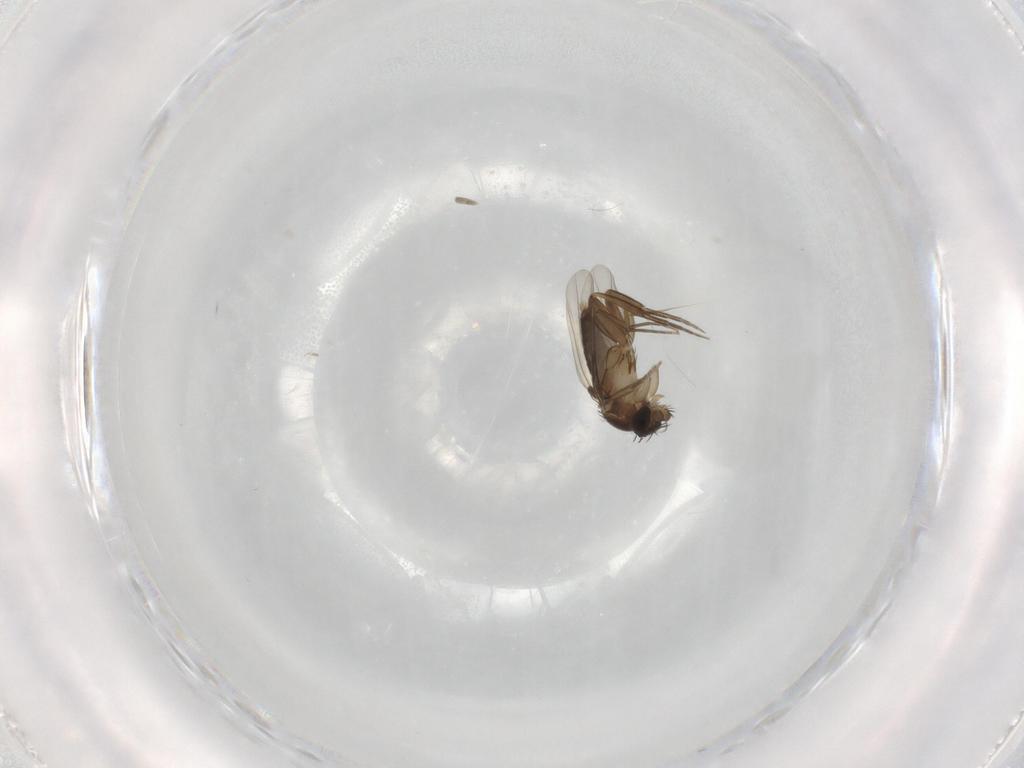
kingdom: Animalia
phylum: Arthropoda
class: Insecta
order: Diptera
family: Phoridae
